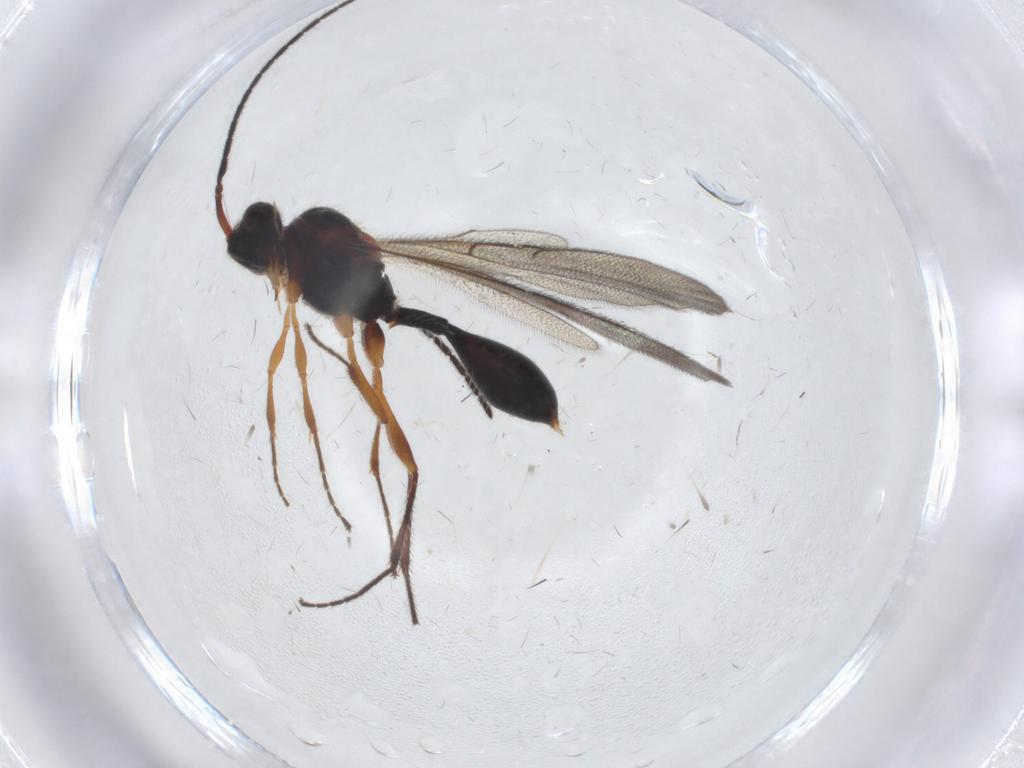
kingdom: Animalia
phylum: Arthropoda
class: Insecta
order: Hymenoptera
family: Diapriidae
